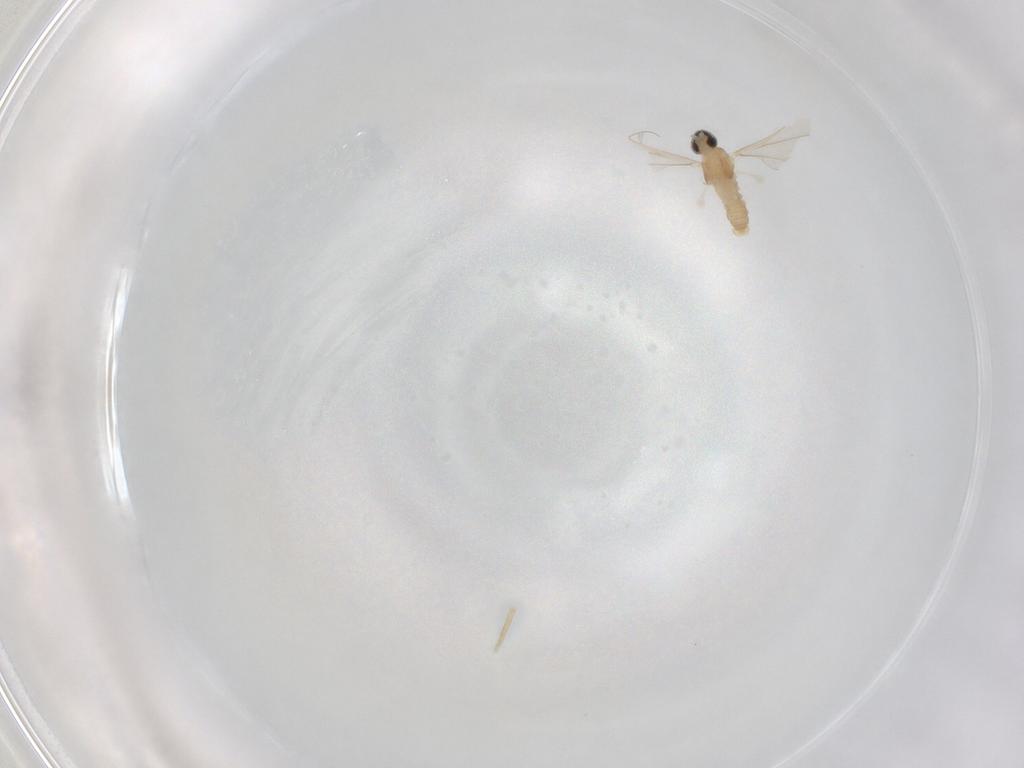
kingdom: Animalia
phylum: Arthropoda
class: Insecta
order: Diptera
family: Cecidomyiidae
